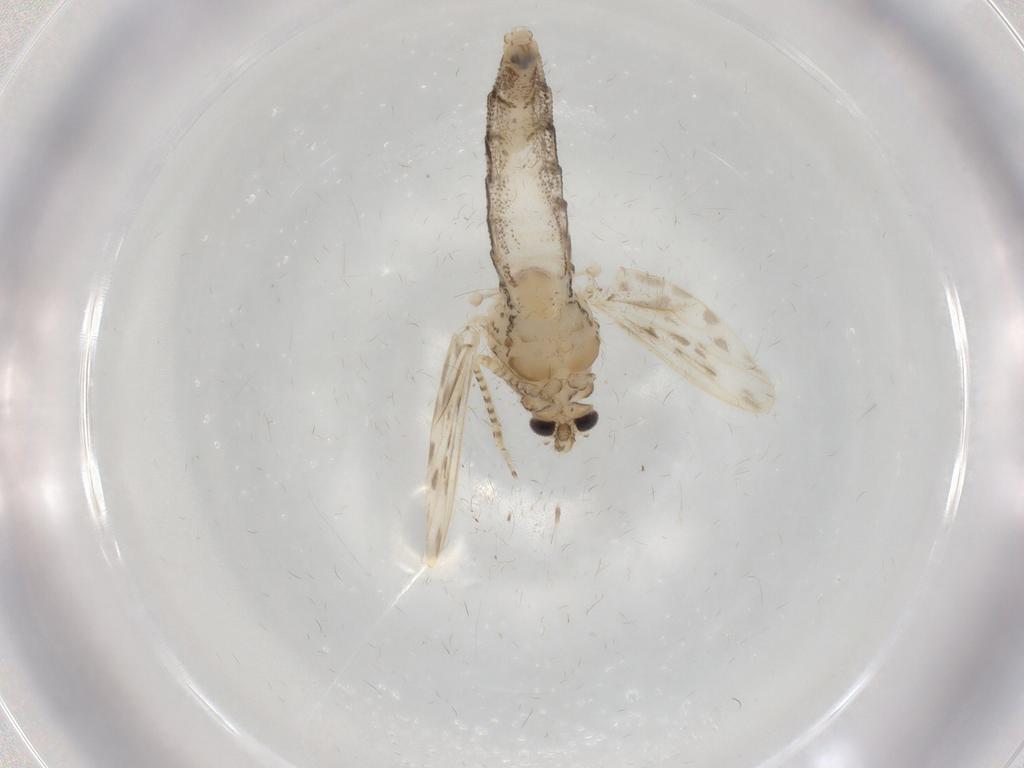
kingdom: Animalia
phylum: Arthropoda
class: Insecta
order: Diptera
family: Chaoboridae
